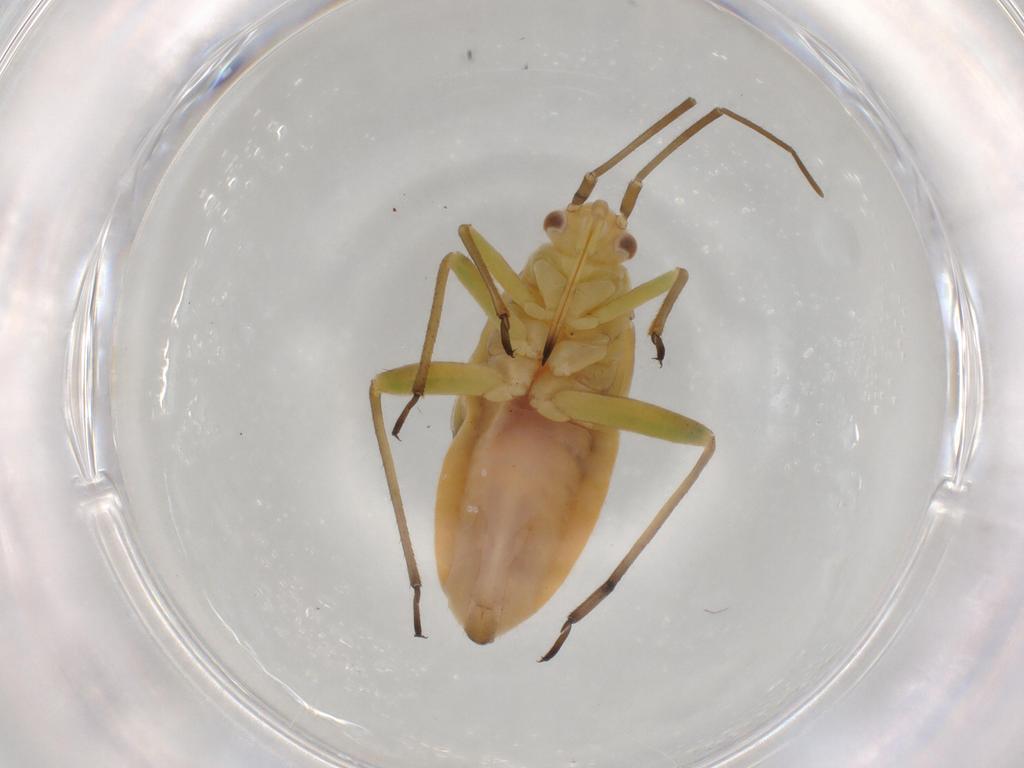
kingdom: Animalia
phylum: Arthropoda
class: Insecta
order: Hemiptera
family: Miridae
